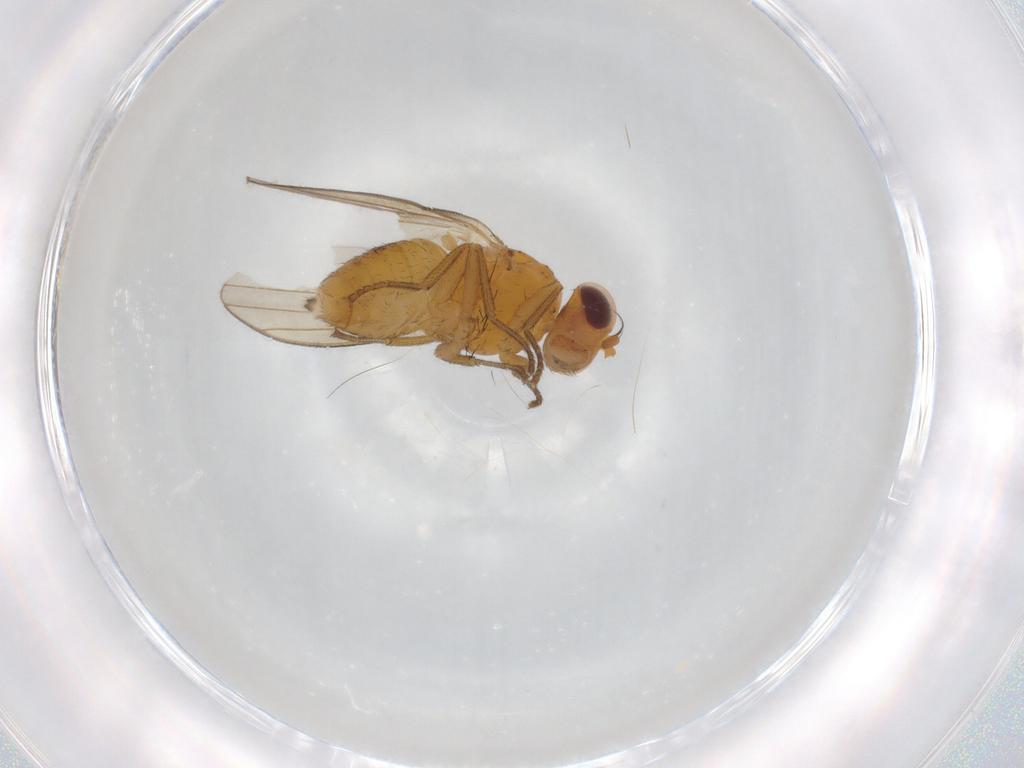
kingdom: Animalia
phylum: Arthropoda
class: Insecta
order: Diptera
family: Lauxaniidae
